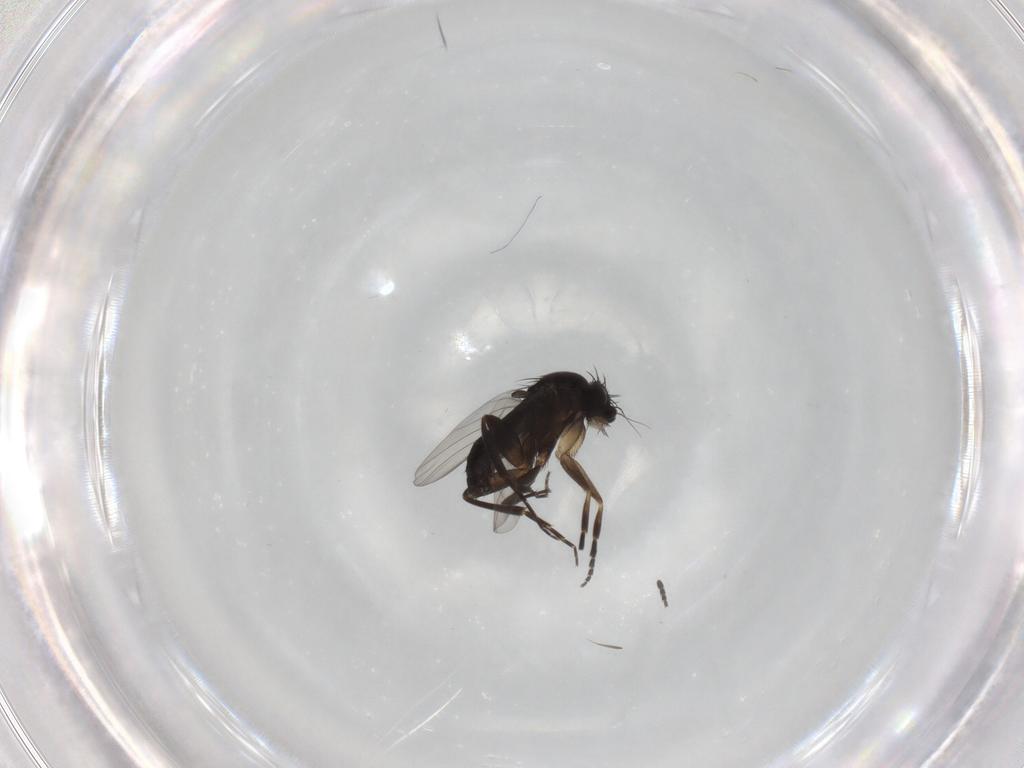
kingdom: Animalia
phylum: Arthropoda
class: Insecta
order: Diptera
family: Phoridae
